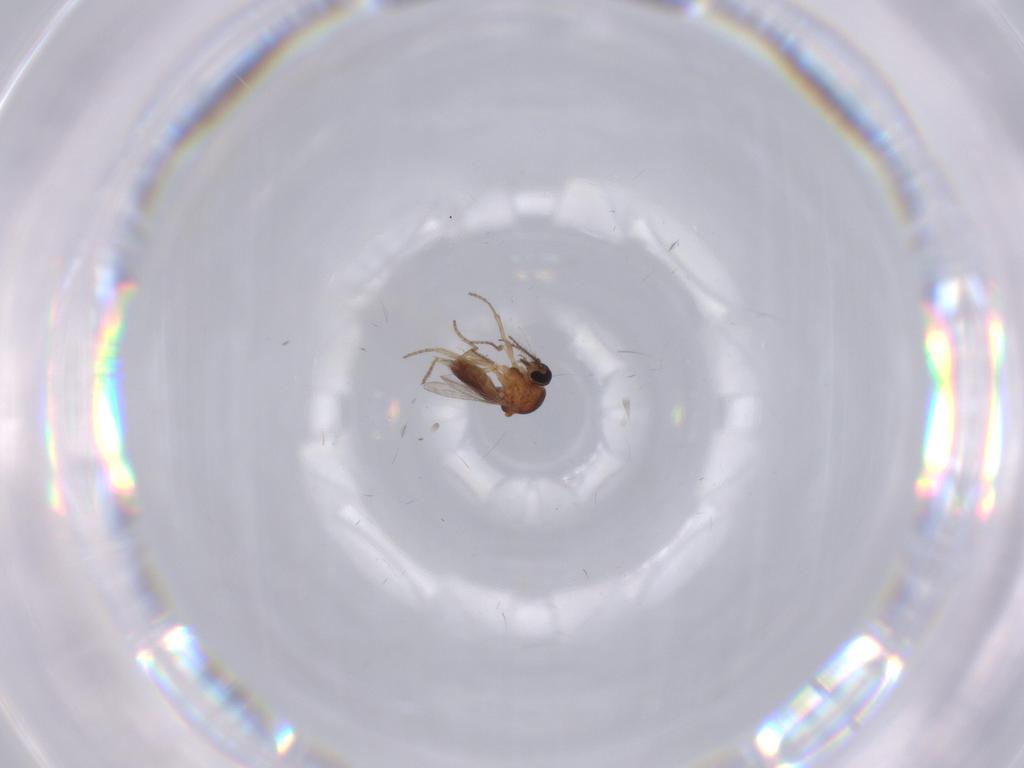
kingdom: Animalia
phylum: Arthropoda
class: Insecta
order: Diptera
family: Ceratopogonidae
